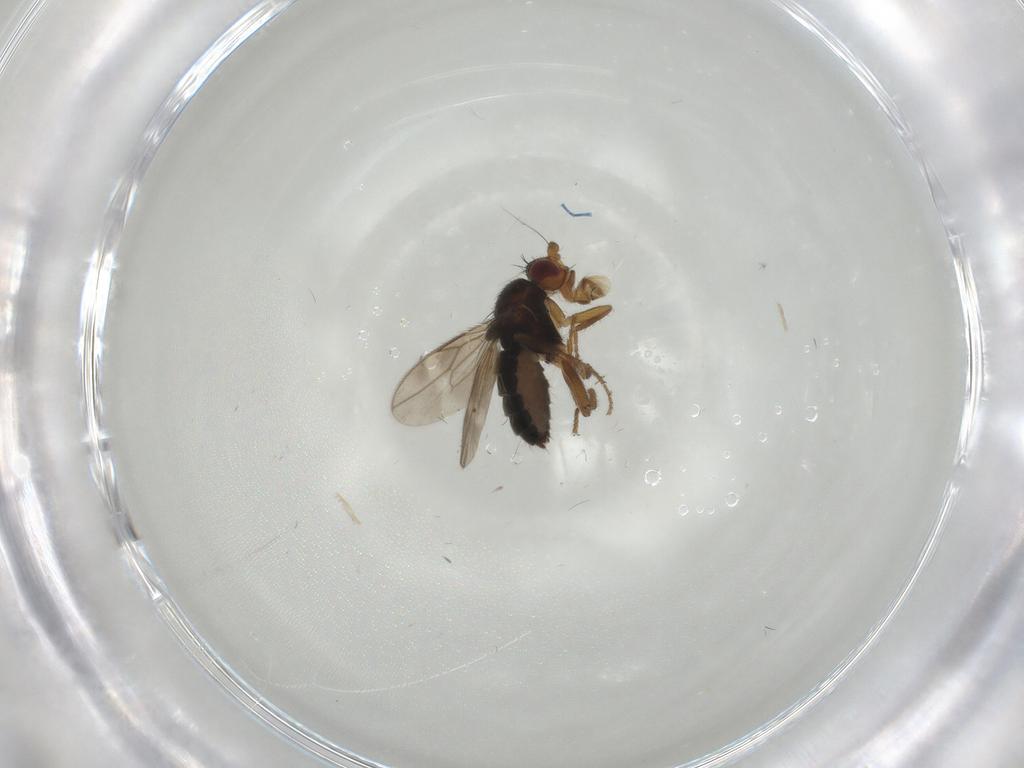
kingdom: Animalia
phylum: Arthropoda
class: Insecta
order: Diptera
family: Sphaeroceridae
